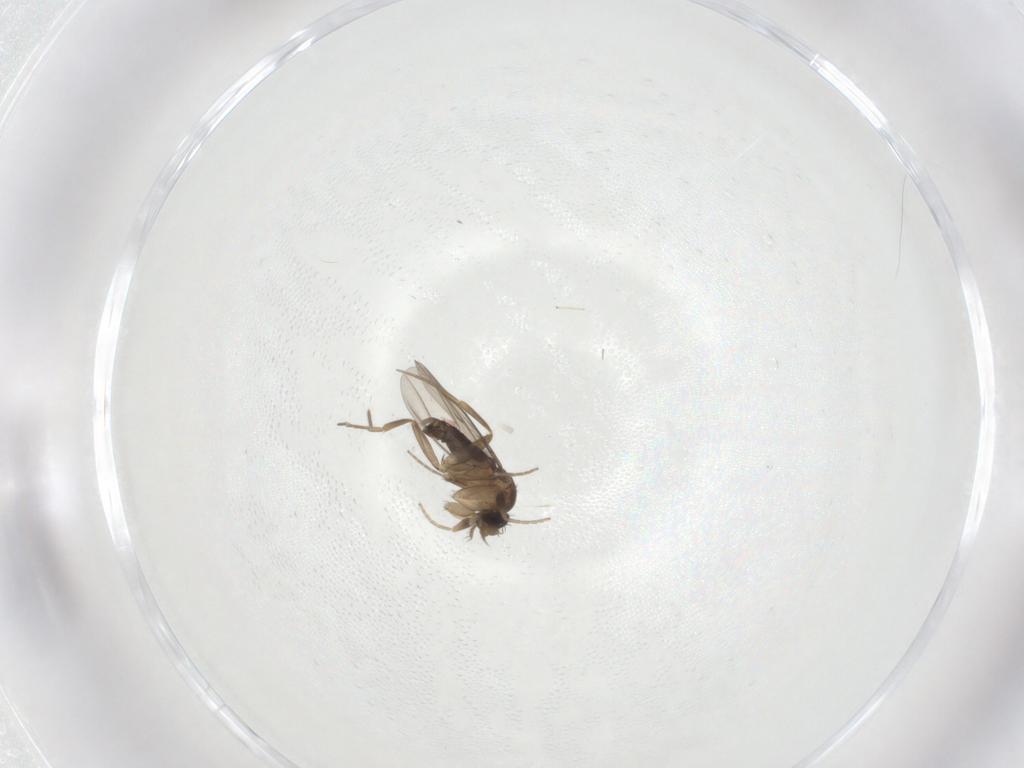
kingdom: Animalia
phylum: Arthropoda
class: Insecta
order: Diptera
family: Phoridae
